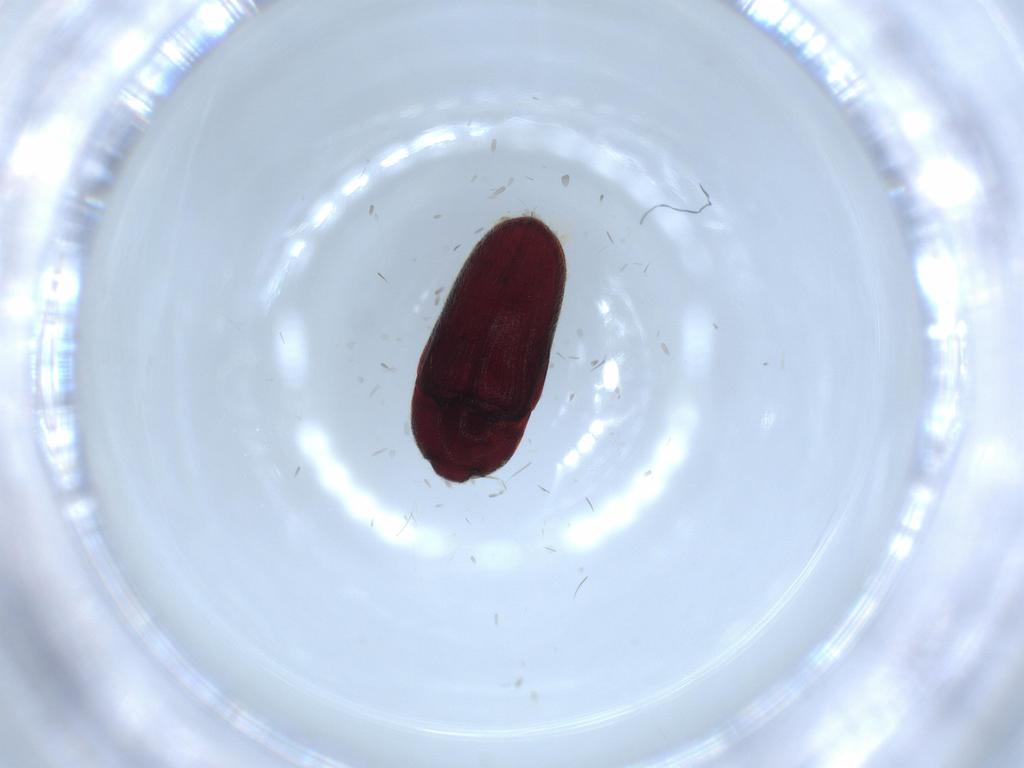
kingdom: Animalia
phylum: Arthropoda
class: Insecta
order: Coleoptera
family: Throscidae
